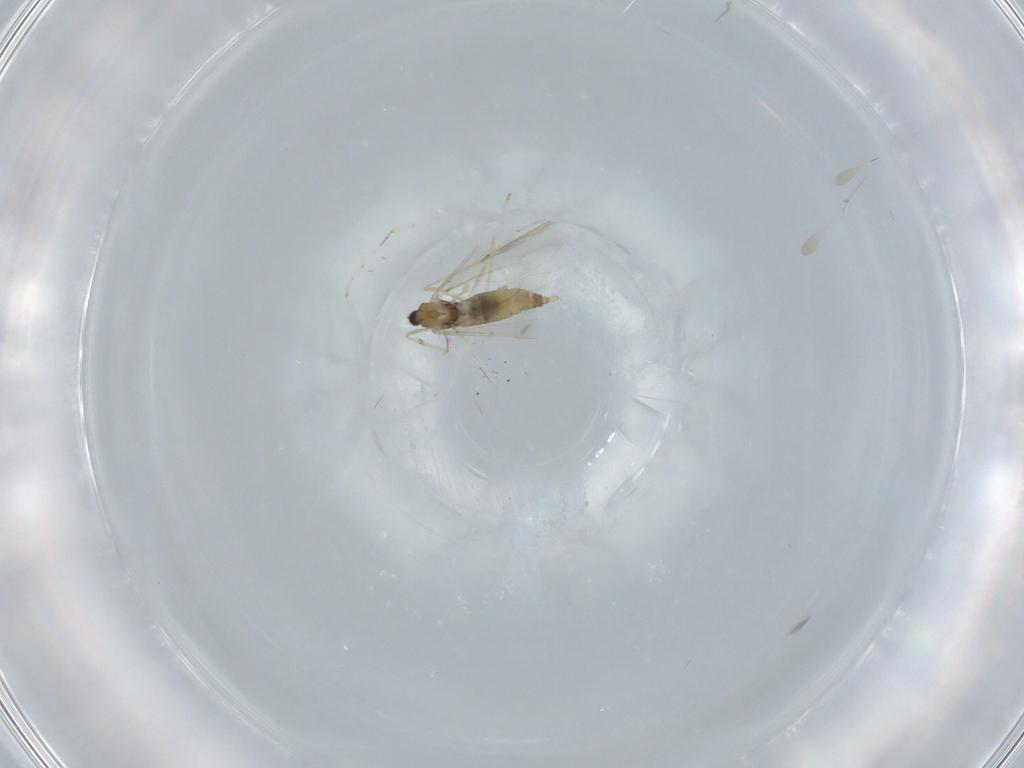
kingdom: Animalia
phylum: Arthropoda
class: Insecta
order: Diptera
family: Cecidomyiidae
